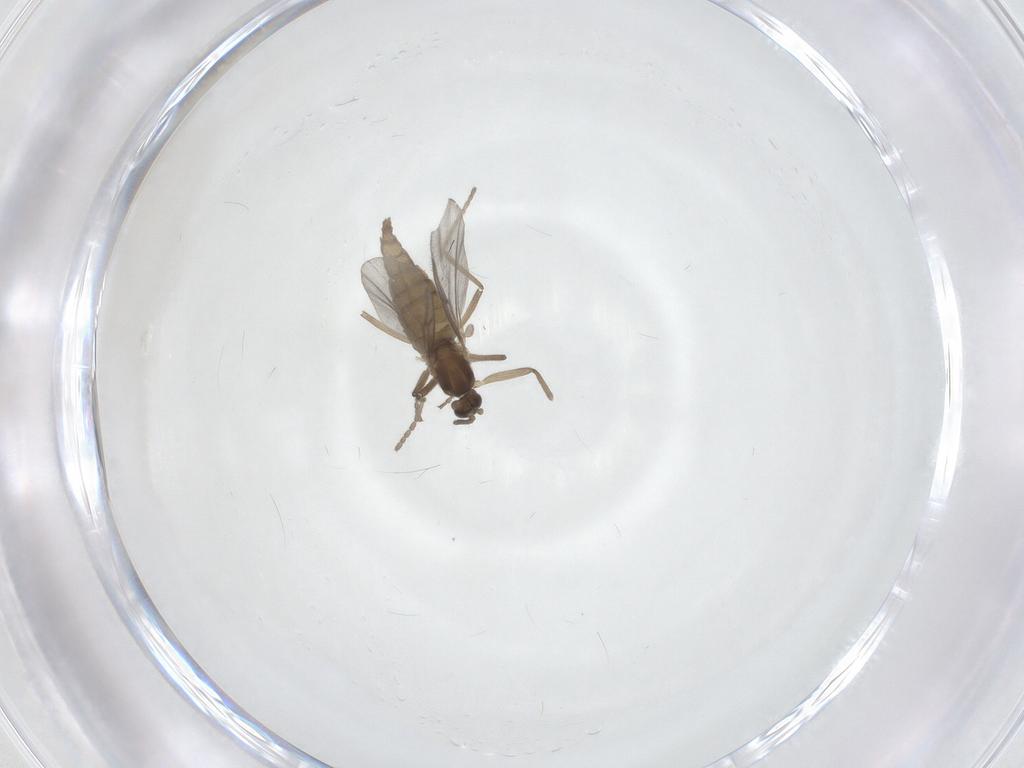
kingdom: Animalia
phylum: Arthropoda
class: Insecta
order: Diptera
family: Cecidomyiidae
